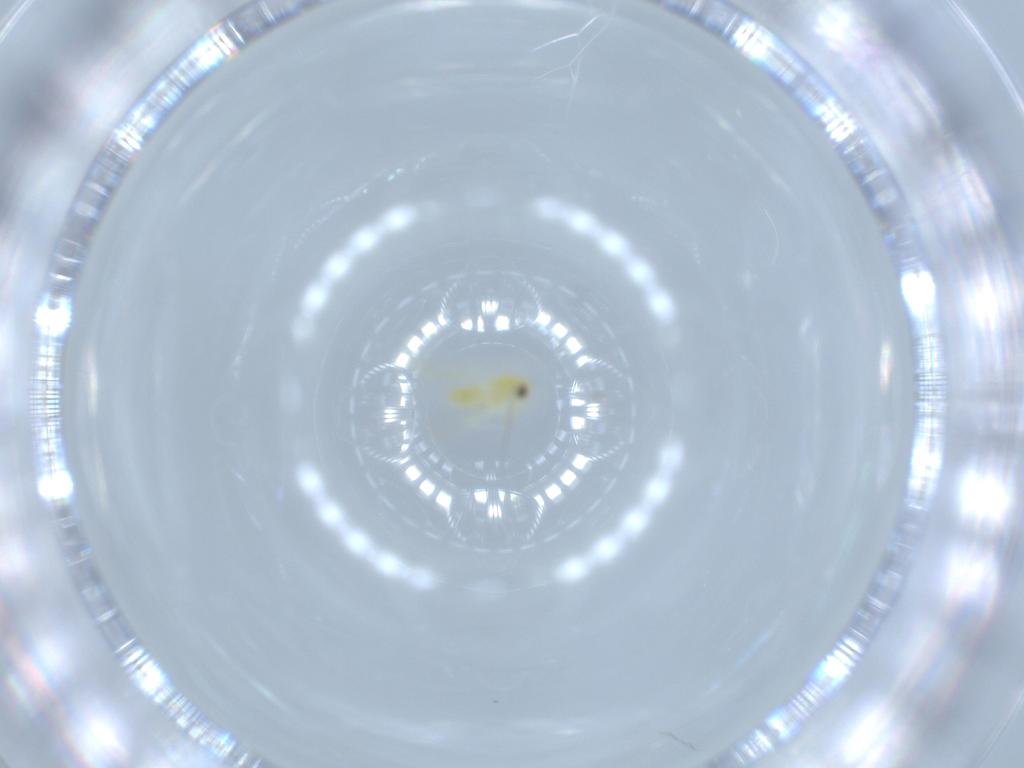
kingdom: Animalia
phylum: Arthropoda
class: Insecta
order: Hemiptera
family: Aleyrodidae
